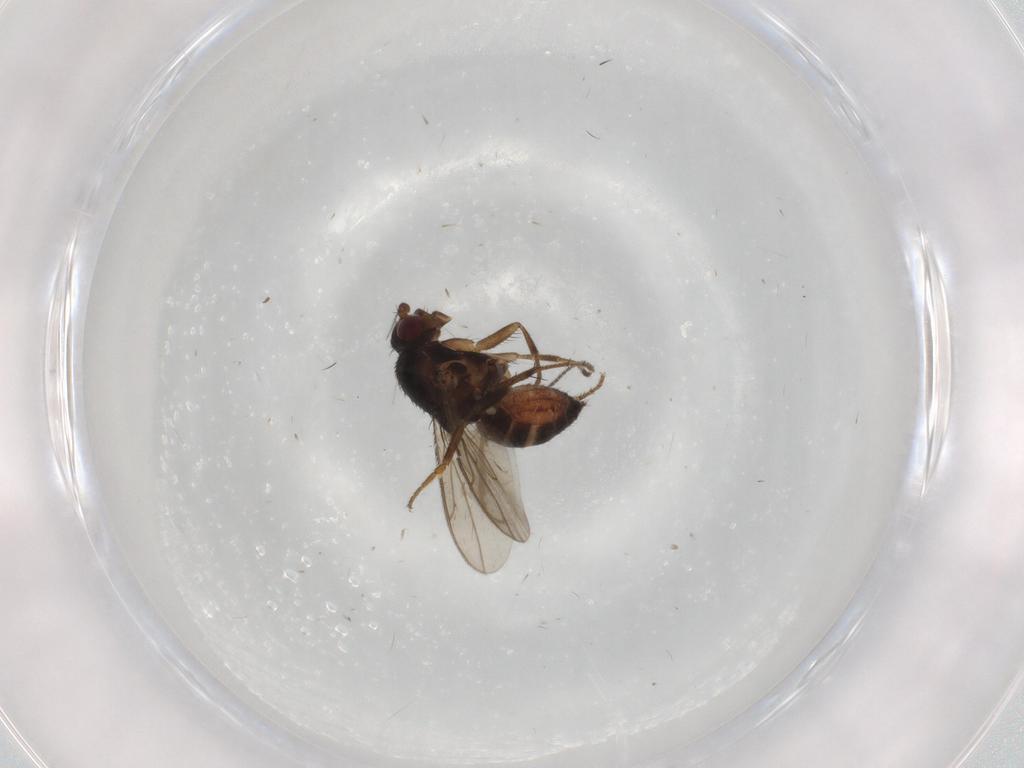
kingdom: Animalia
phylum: Arthropoda
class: Insecta
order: Diptera
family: Sphaeroceridae
